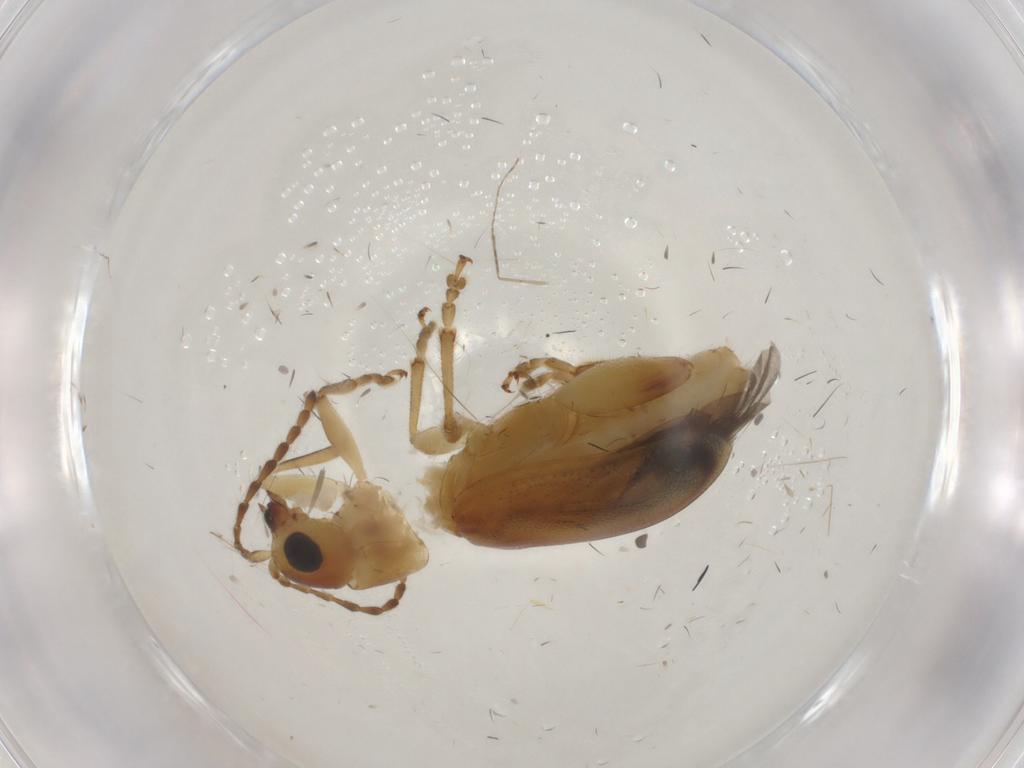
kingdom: Animalia
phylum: Arthropoda
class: Insecta
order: Coleoptera
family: Chrysomelidae
